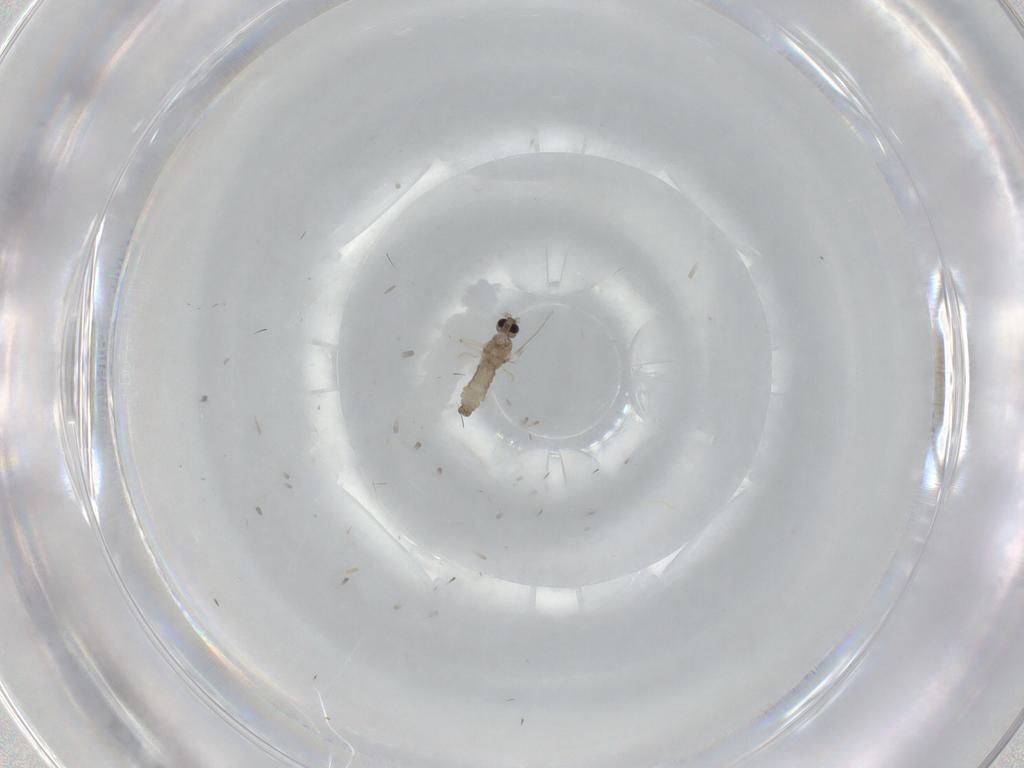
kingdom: Animalia
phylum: Arthropoda
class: Insecta
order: Diptera
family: Cecidomyiidae
